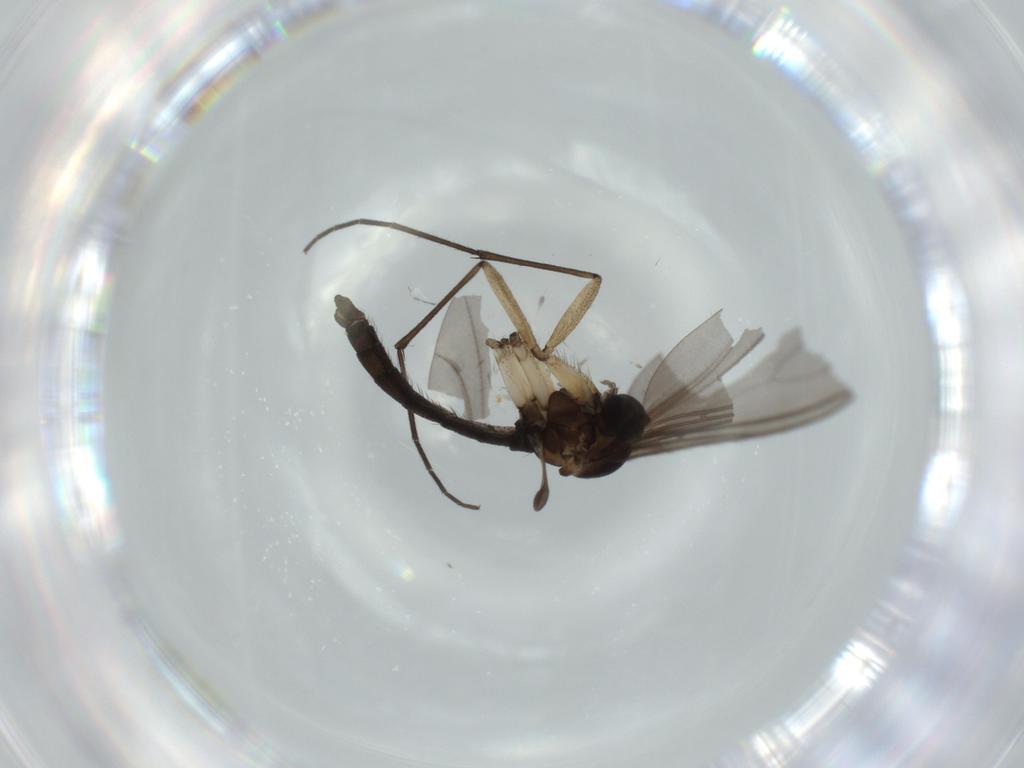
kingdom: Animalia
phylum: Arthropoda
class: Insecta
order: Diptera
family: Sciaridae
